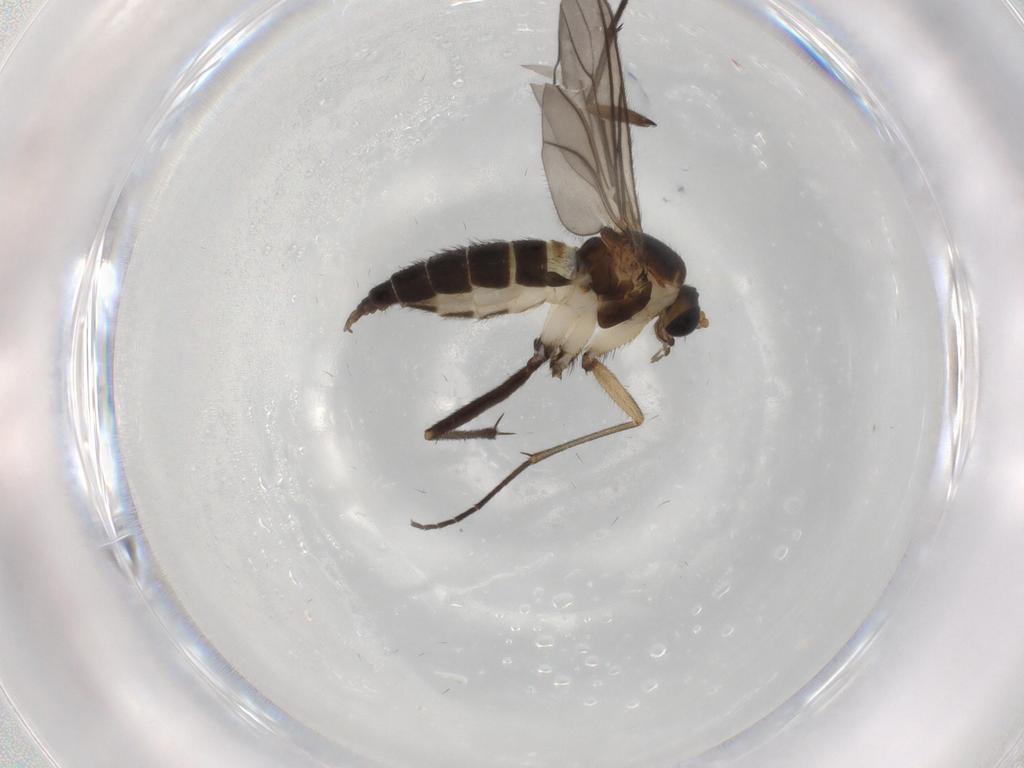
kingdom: Animalia
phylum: Arthropoda
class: Insecta
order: Diptera
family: Sciaridae
